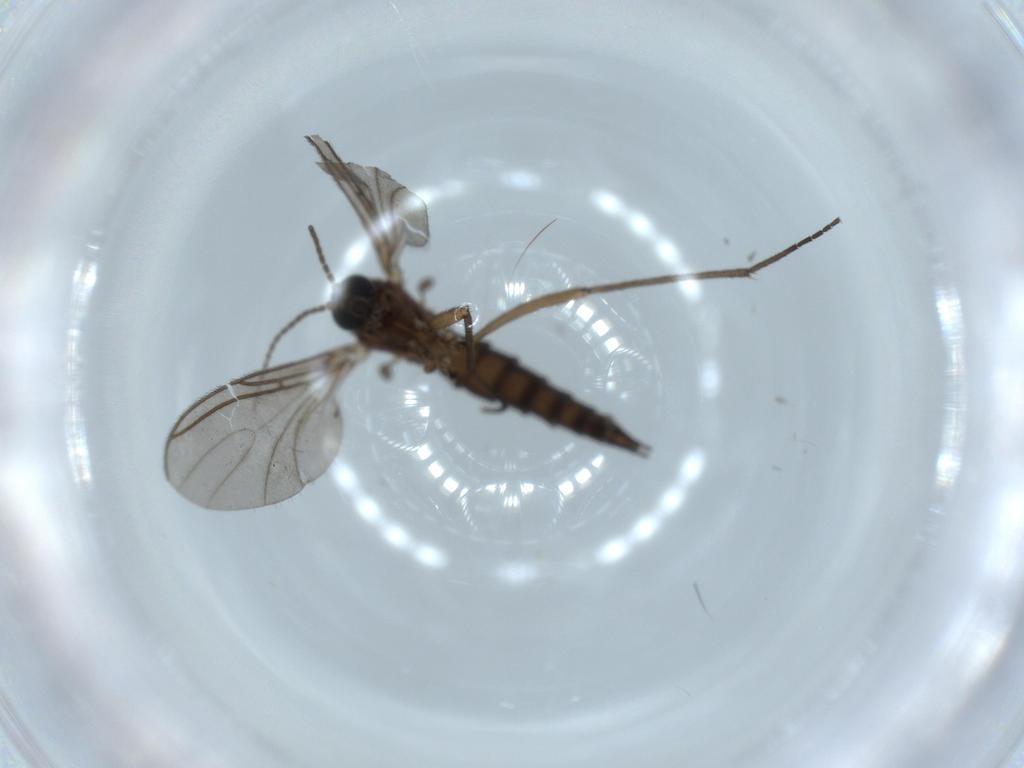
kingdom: Animalia
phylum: Arthropoda
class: Insecta
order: Diptera
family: Sciaridae
